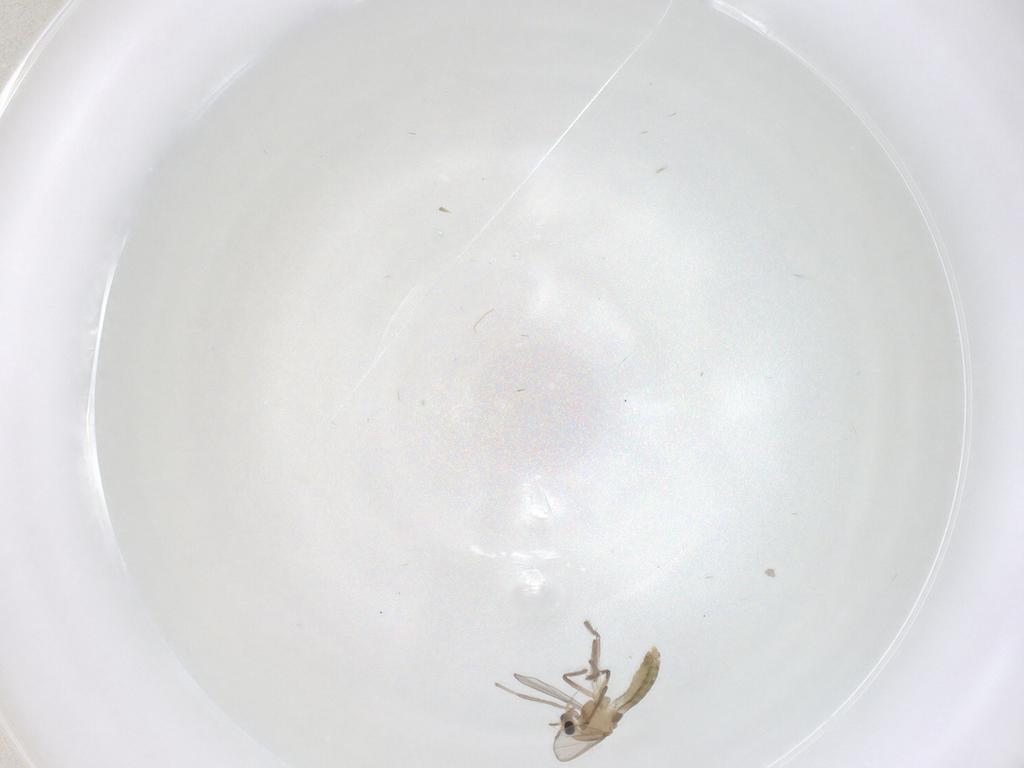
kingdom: Animalia
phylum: Arthropoda
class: Insecta
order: Diptera
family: Chironomidae
